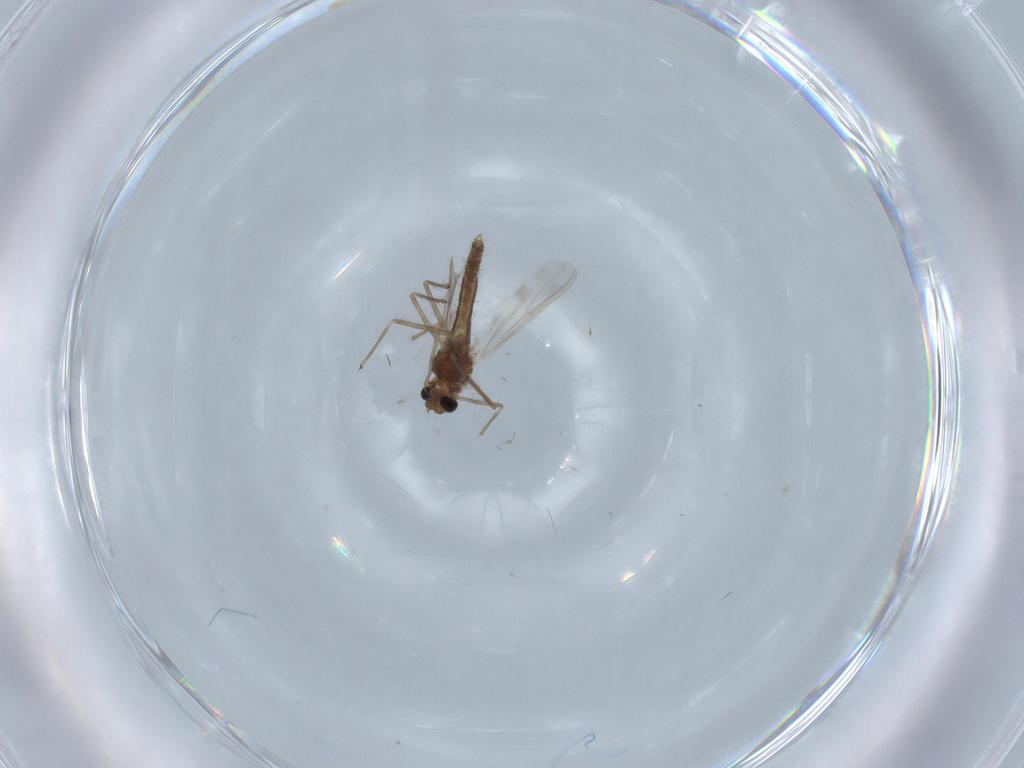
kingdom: Animalia
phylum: Arthropoda
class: Insecta
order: Diptera
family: Chironomidae
